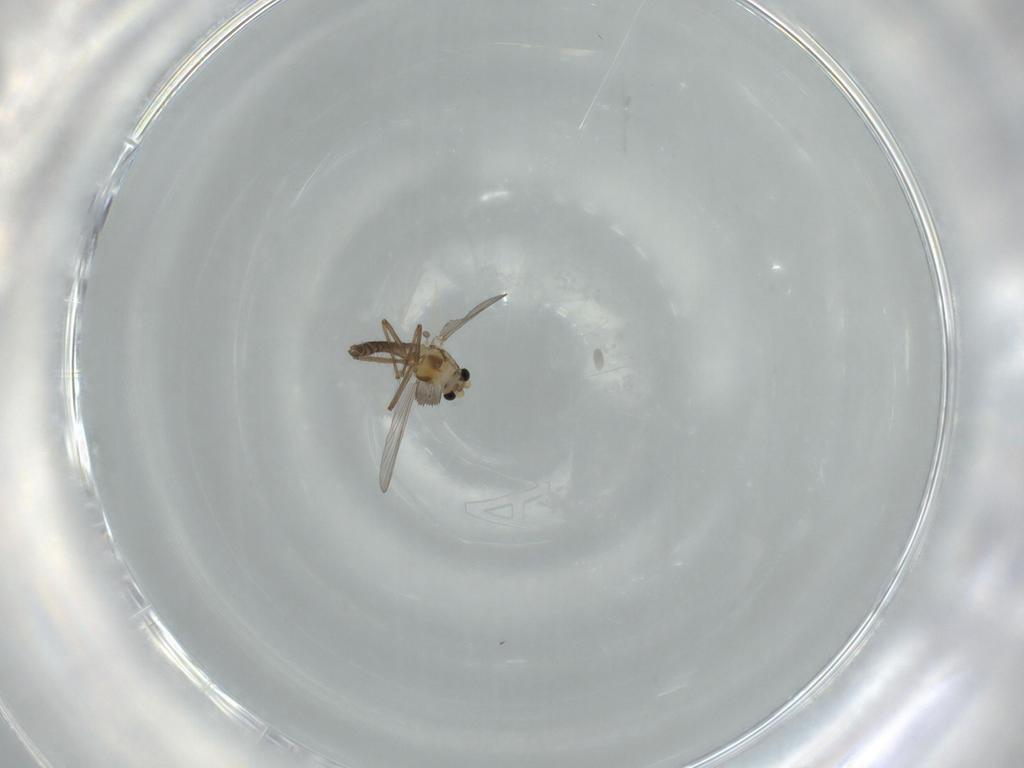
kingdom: Animalia
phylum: Arthropoda
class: Insecta
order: Diptera
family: Chironomidae
